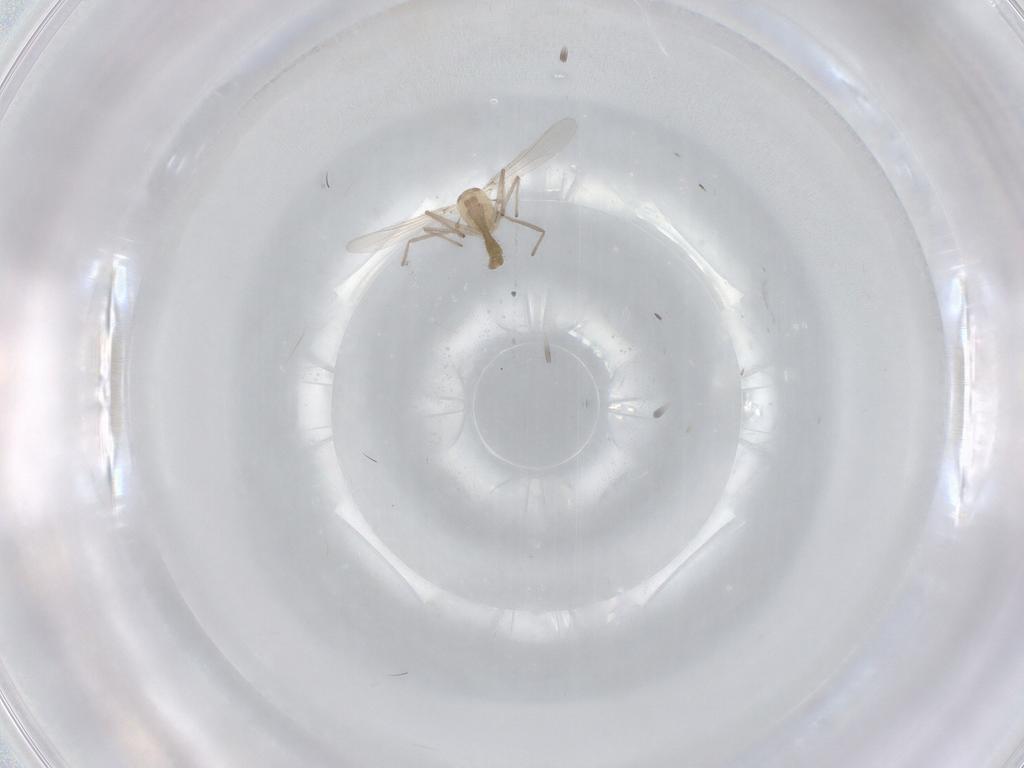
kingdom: Animalia
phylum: Arthropoda
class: Insecta
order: Diptera
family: Chironomidae
